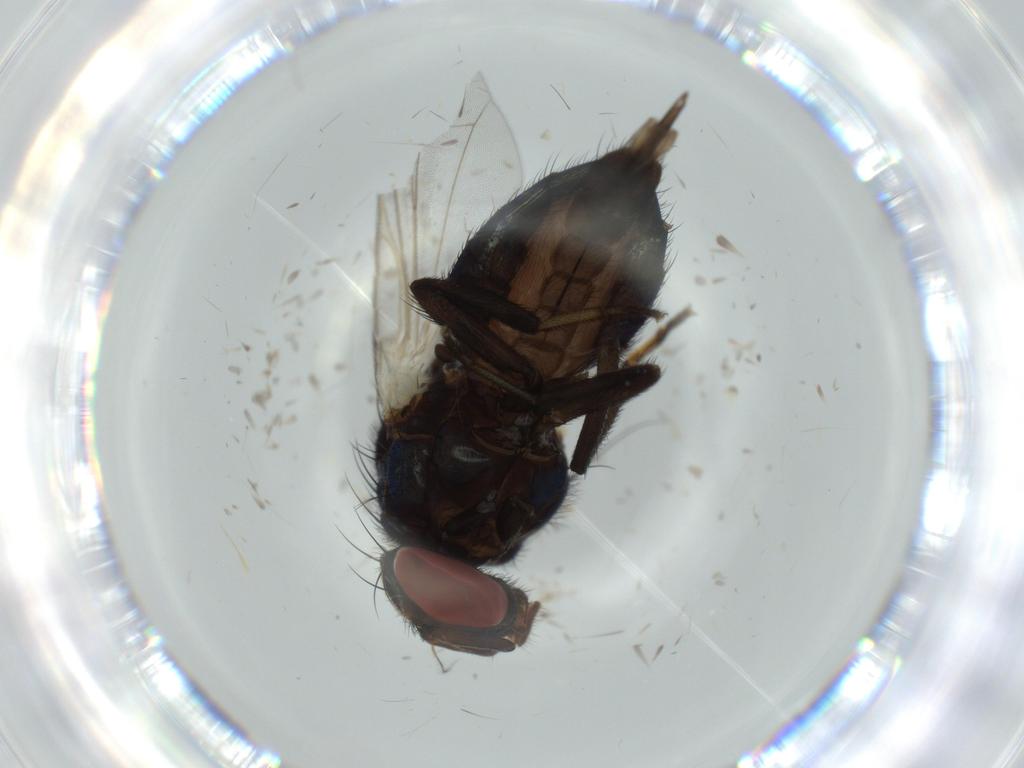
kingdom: Animalia
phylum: Arthropoda
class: Insecta
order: Diptera
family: Lonchaeidae
